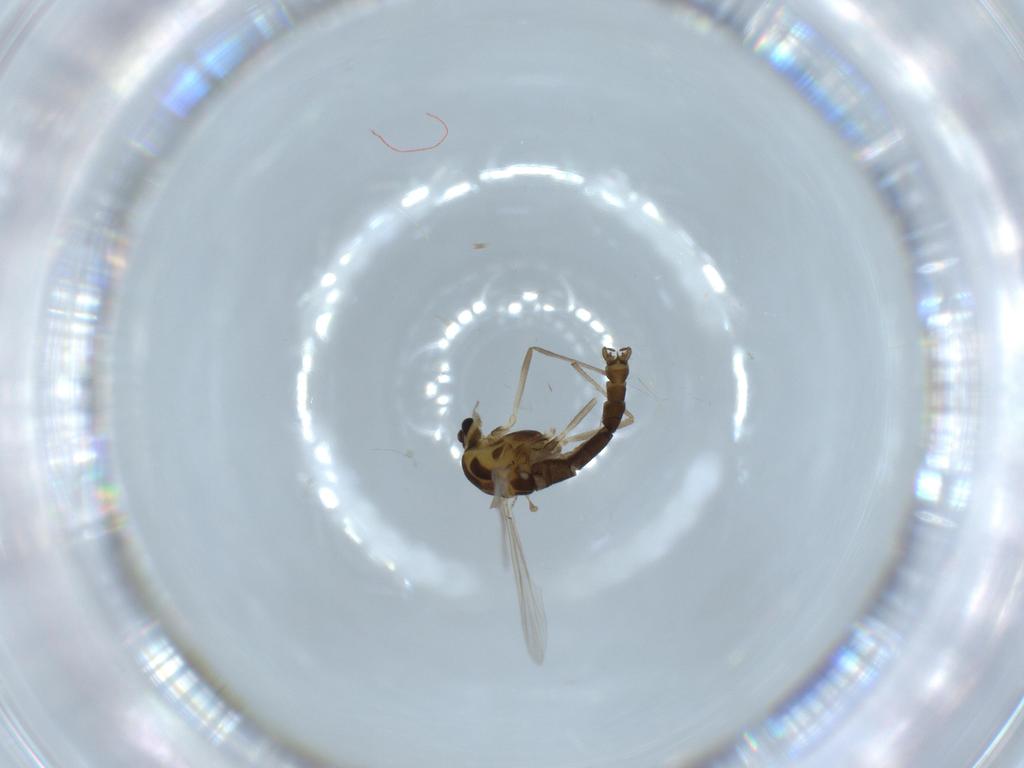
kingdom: Animalia
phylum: Arthropoda
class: Insecta
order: Diptera
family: Chironomidae
